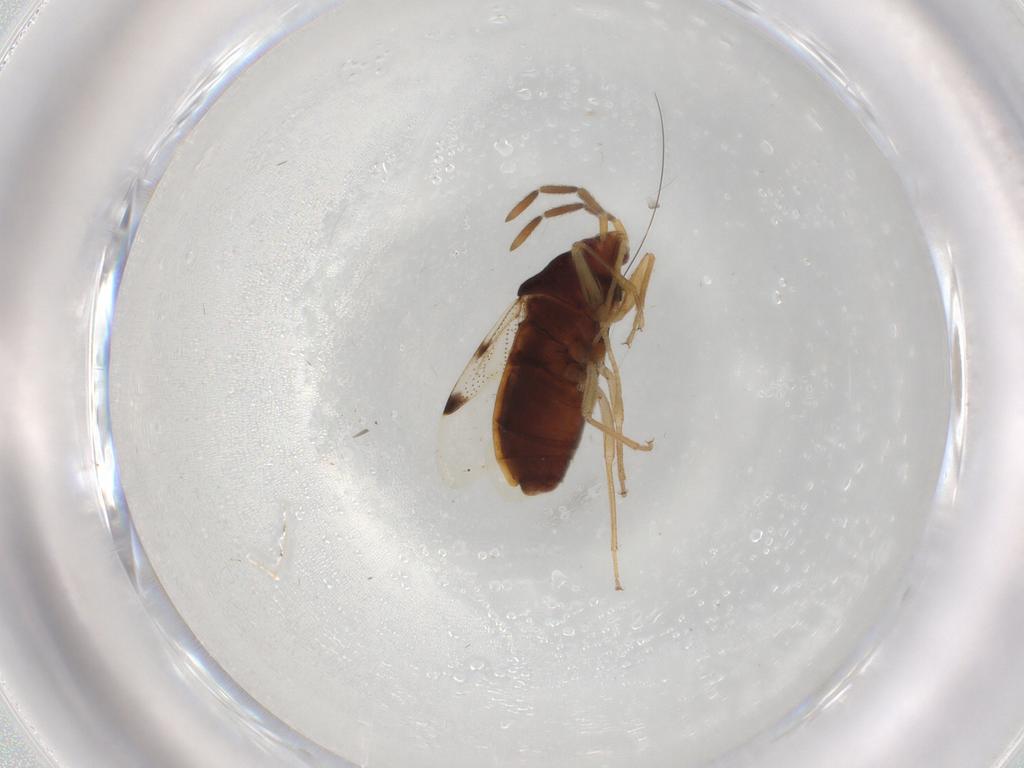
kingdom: Animalia
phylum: Arthropoda
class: Insecta
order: Hemiptera
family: Rhyparochromidae
